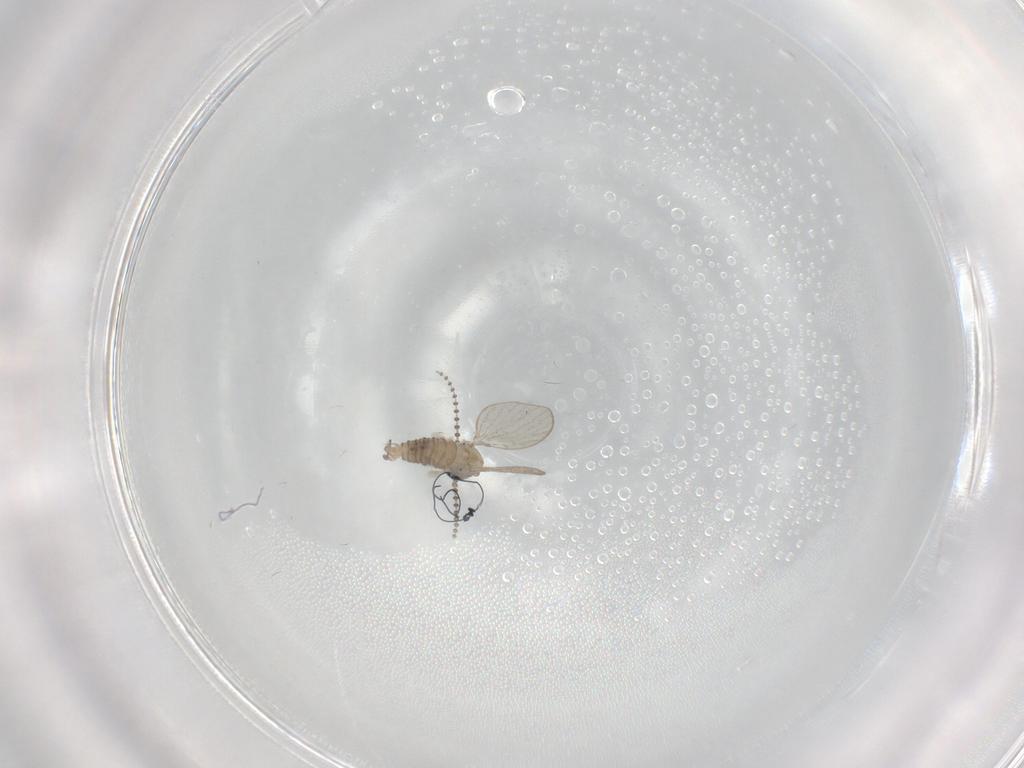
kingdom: Animalia
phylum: Arthropoda
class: Insecta
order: Diptera
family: Psychodidae
